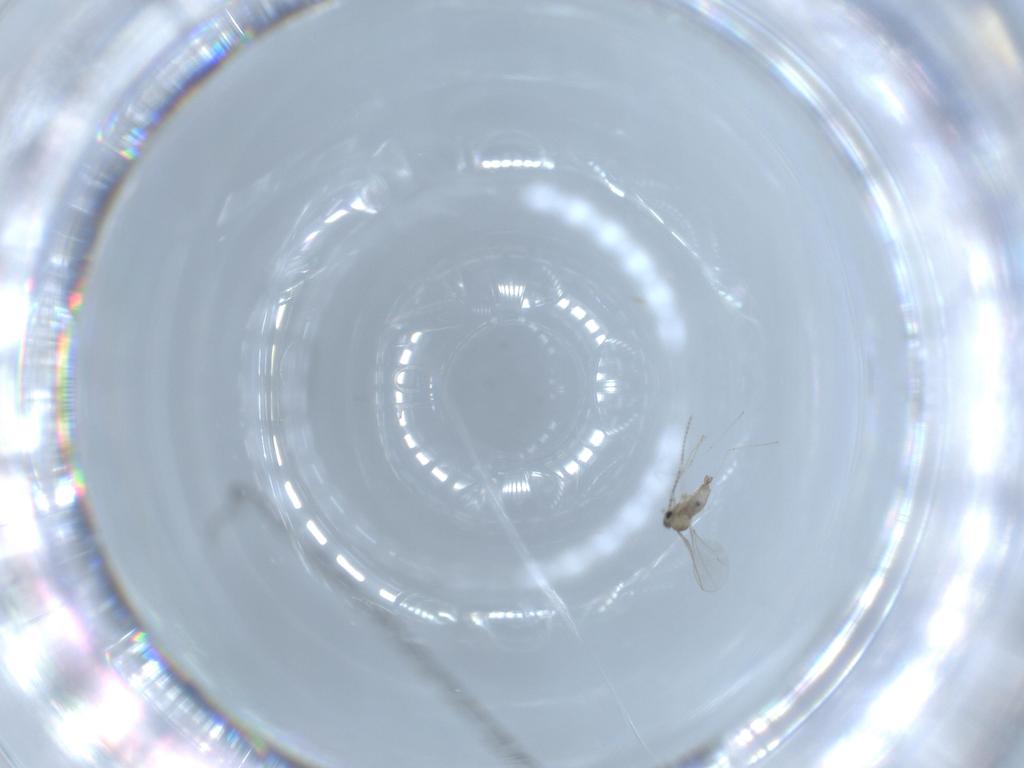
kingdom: Animalia
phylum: Arthropoda
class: Insecta
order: Diptera
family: Cecidomyiidae
